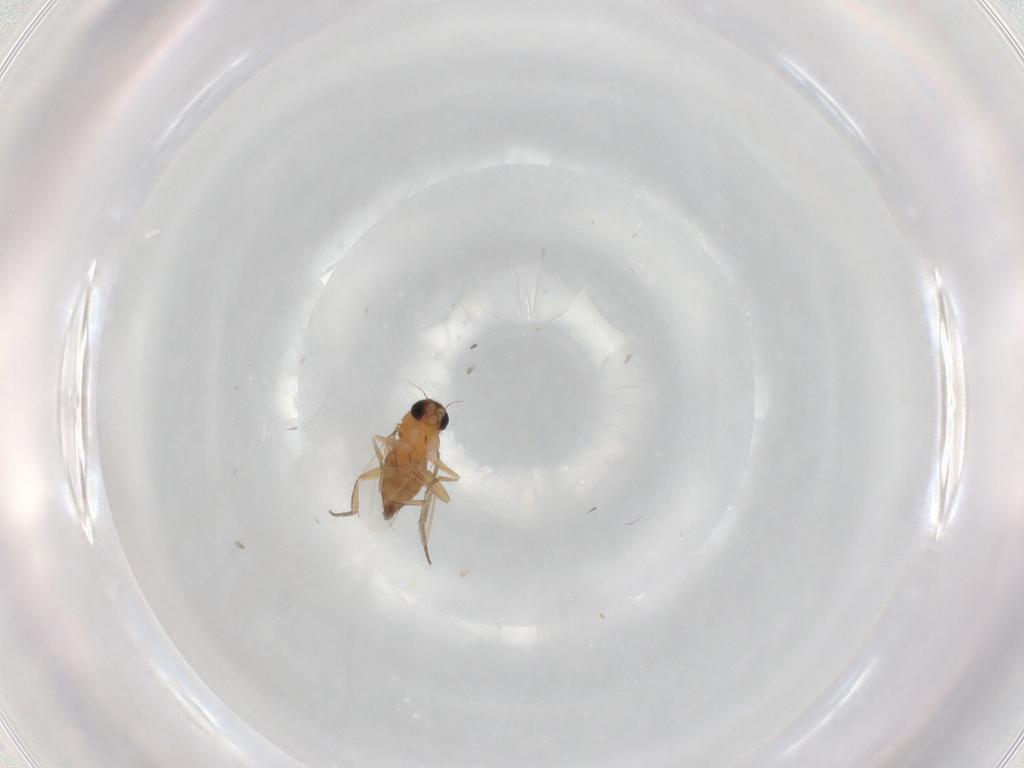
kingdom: Animalia
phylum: Arthropoda
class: Insecta
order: Diptera
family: Phoridae
